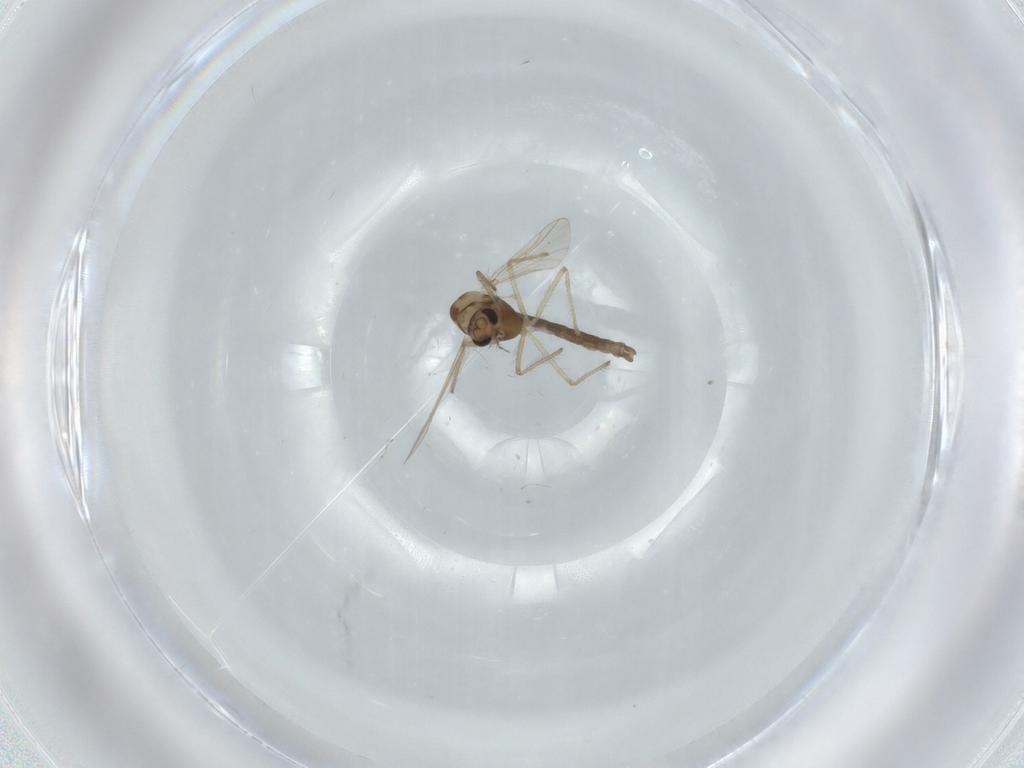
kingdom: Animalia
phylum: Arthropoda
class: Insecta
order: Diptera
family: Chironomidae
